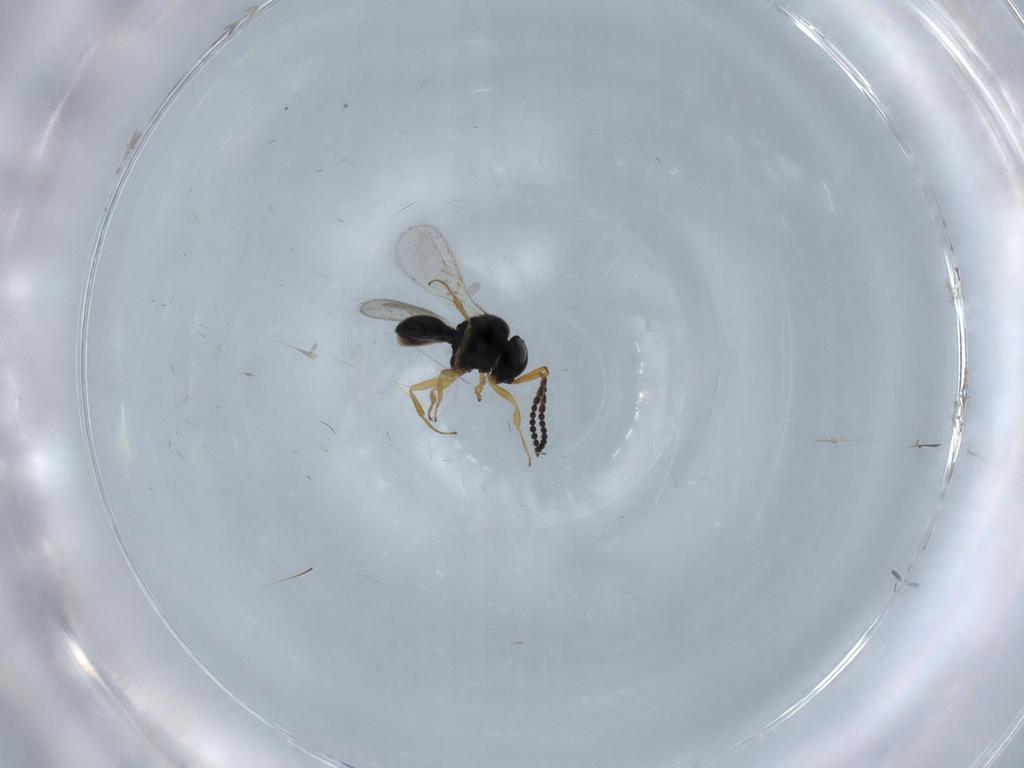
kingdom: Animalia
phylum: Arthropoda
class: Insecta
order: Hymenoptera
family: Scelionidae
